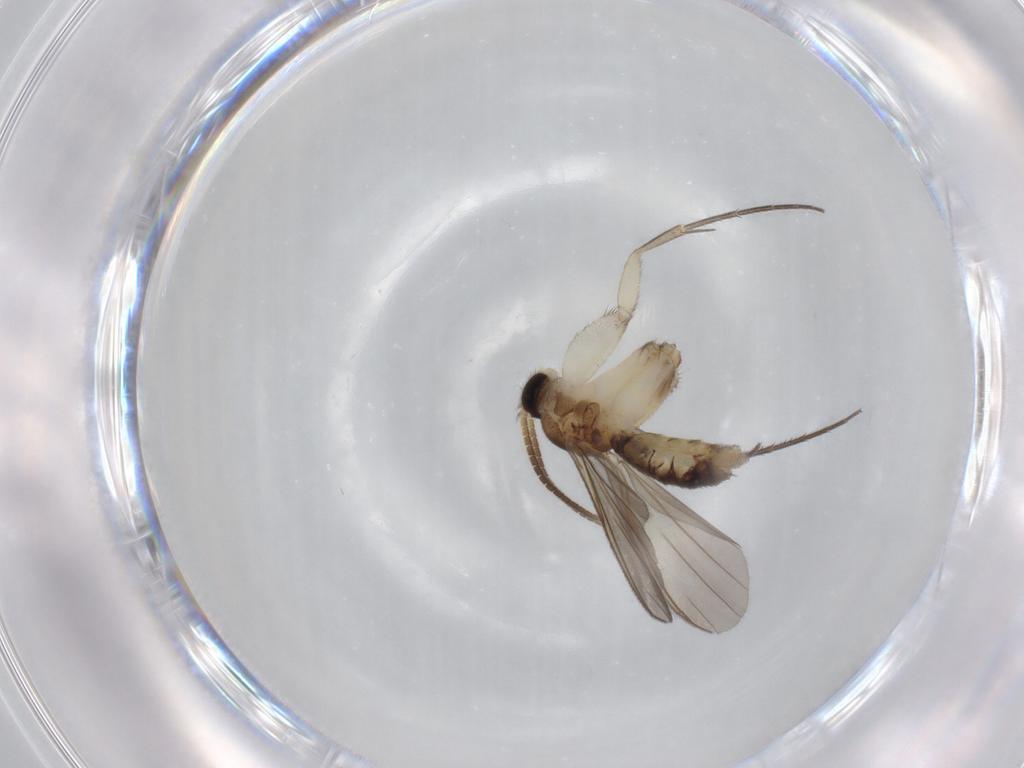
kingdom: Animalia
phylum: Arthropoda
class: Insecta
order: Diptera
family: Mycetophilidae
